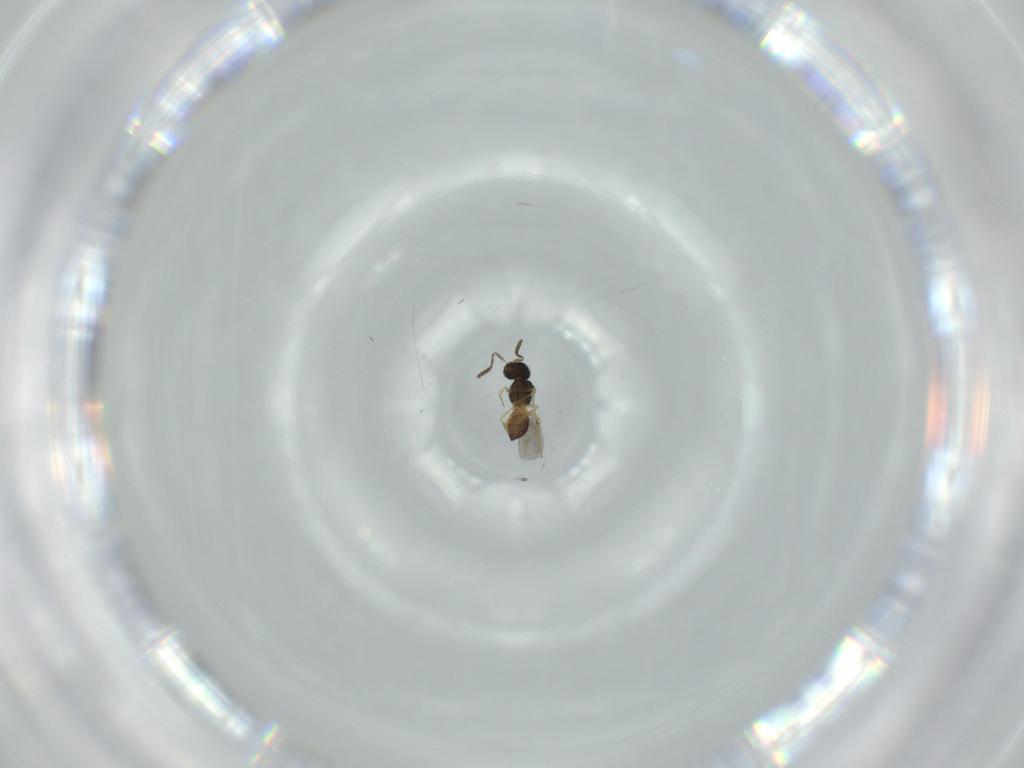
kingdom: Animalia
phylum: Arthropoda
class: Insecta
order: Hymenoptera
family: Scelionidae
